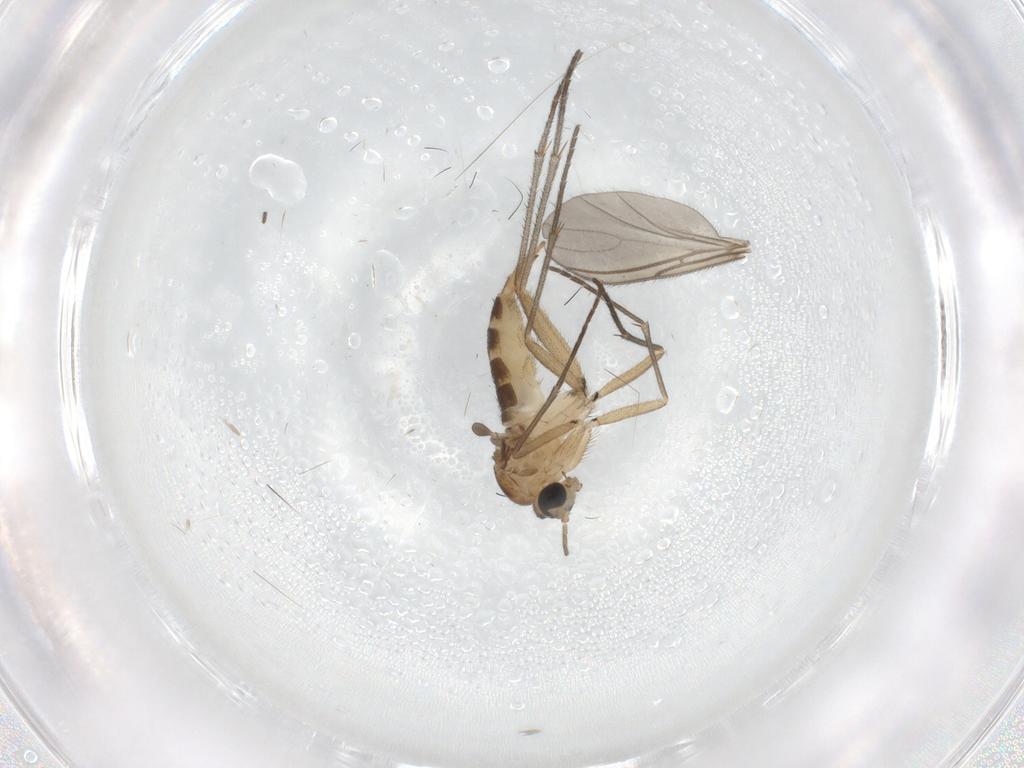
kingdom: Animalia
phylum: Arthropoda
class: Insecta
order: Diptera
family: Sciaridae
